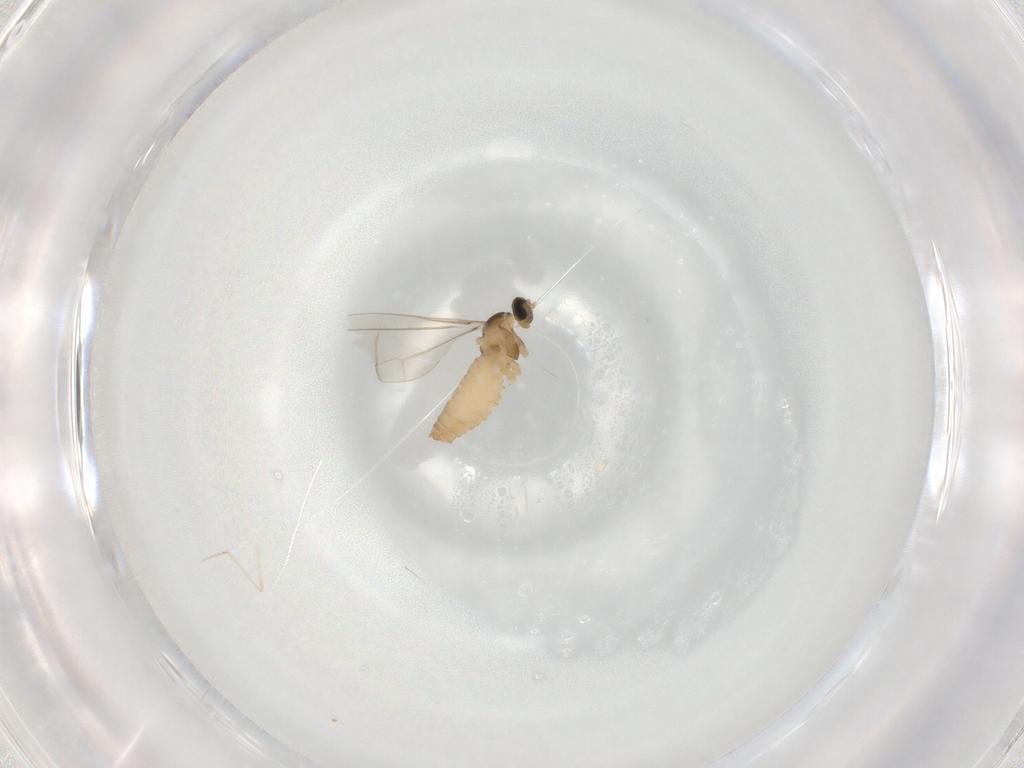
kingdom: Animalia
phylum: Arthropoda
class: Insecta
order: Diptera
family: Cecidomyiidae
